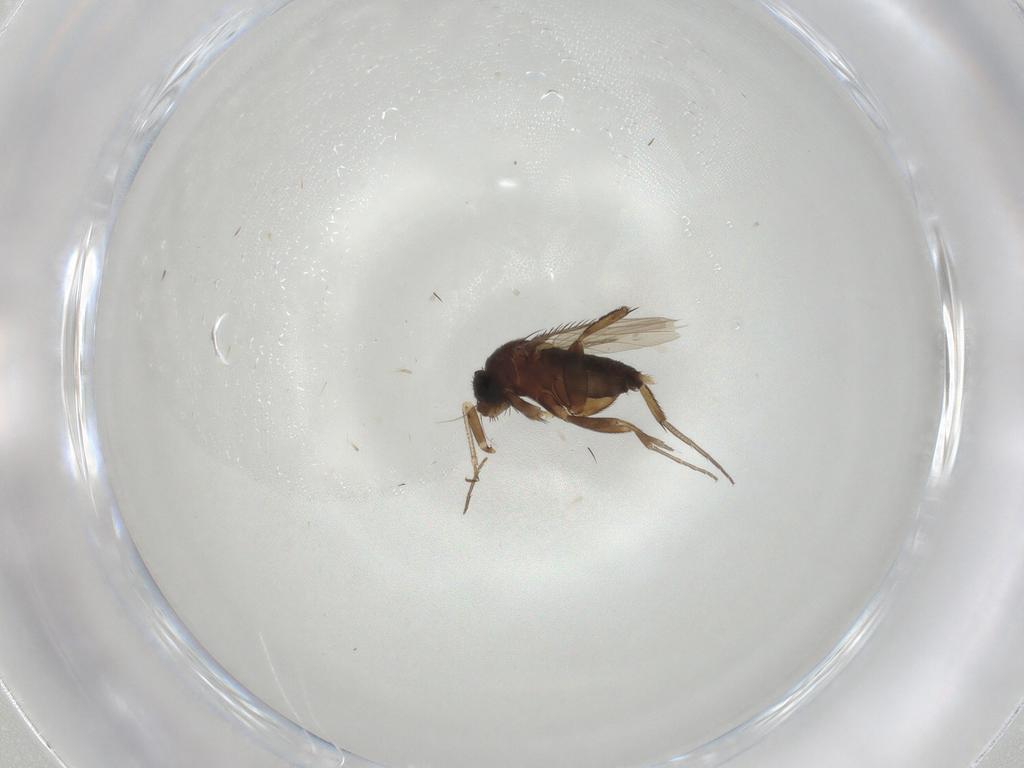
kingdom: Animalia
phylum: Arthropoda
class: Insecta
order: Diptera
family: Phoridae
